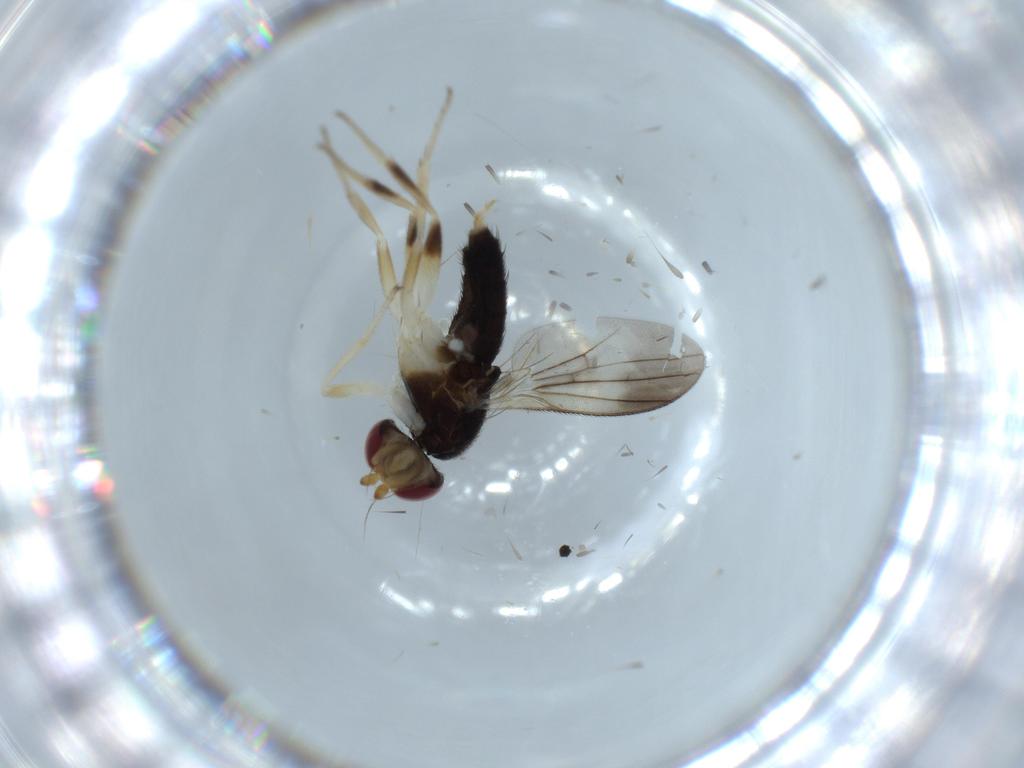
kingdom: Animalia
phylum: Arthropoda
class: Insecta
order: Diptera
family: Clusiidae
